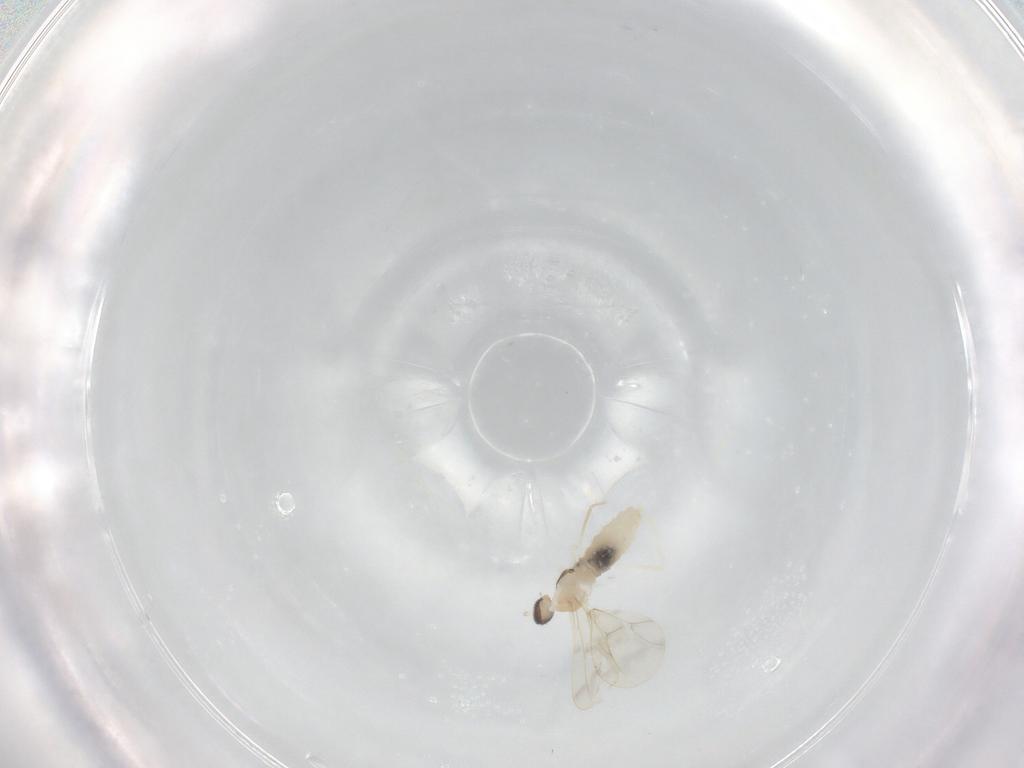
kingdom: Animalia
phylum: Arthropoda
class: Insecta
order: Diptera
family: Cecidomyiidae
